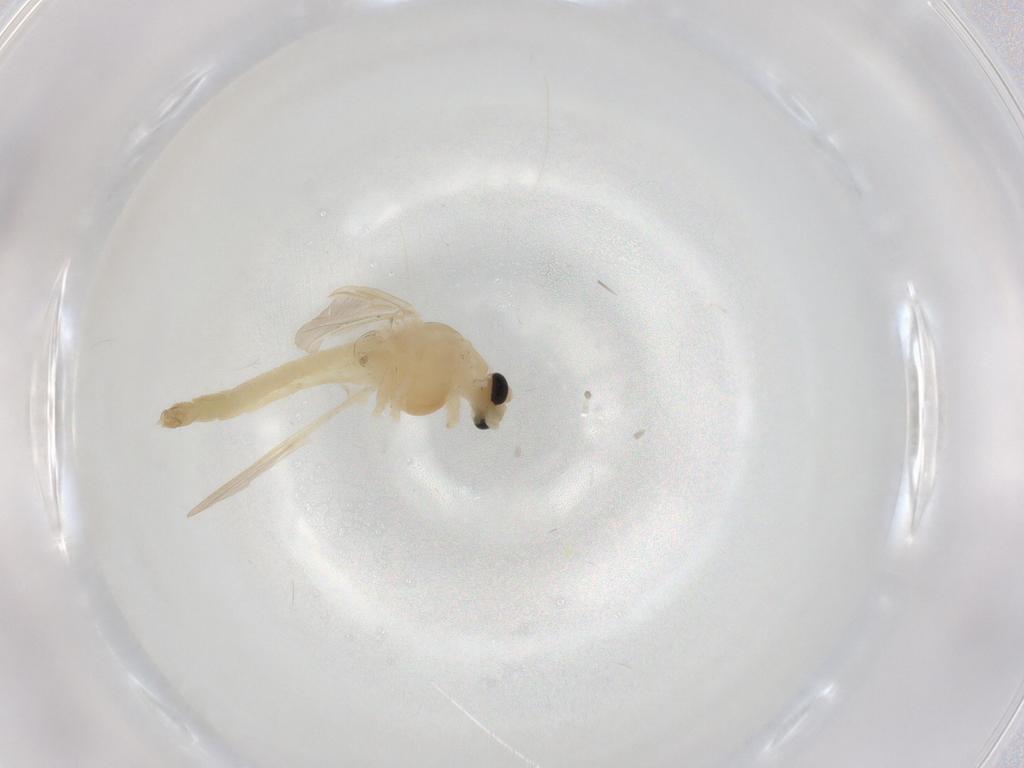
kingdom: Animalia
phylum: Arthropoda
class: Insecta
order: Diptera
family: Chironomidae
